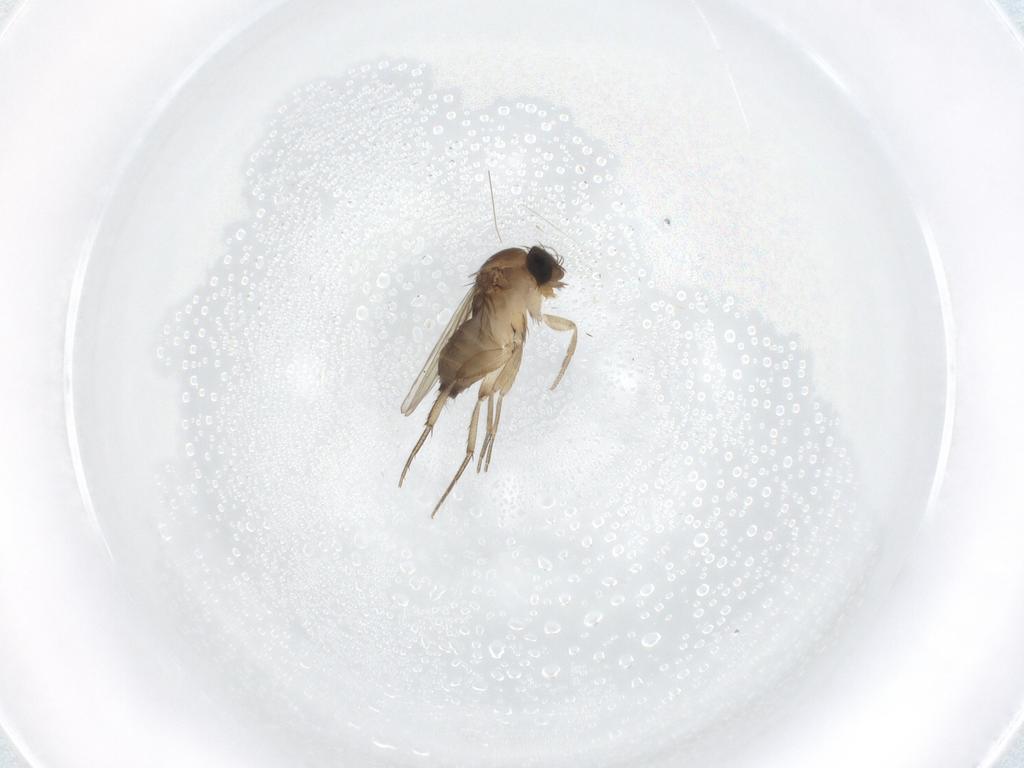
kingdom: Animalia
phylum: Arthropoda
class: Insecta
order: Diptera
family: Phoridae
